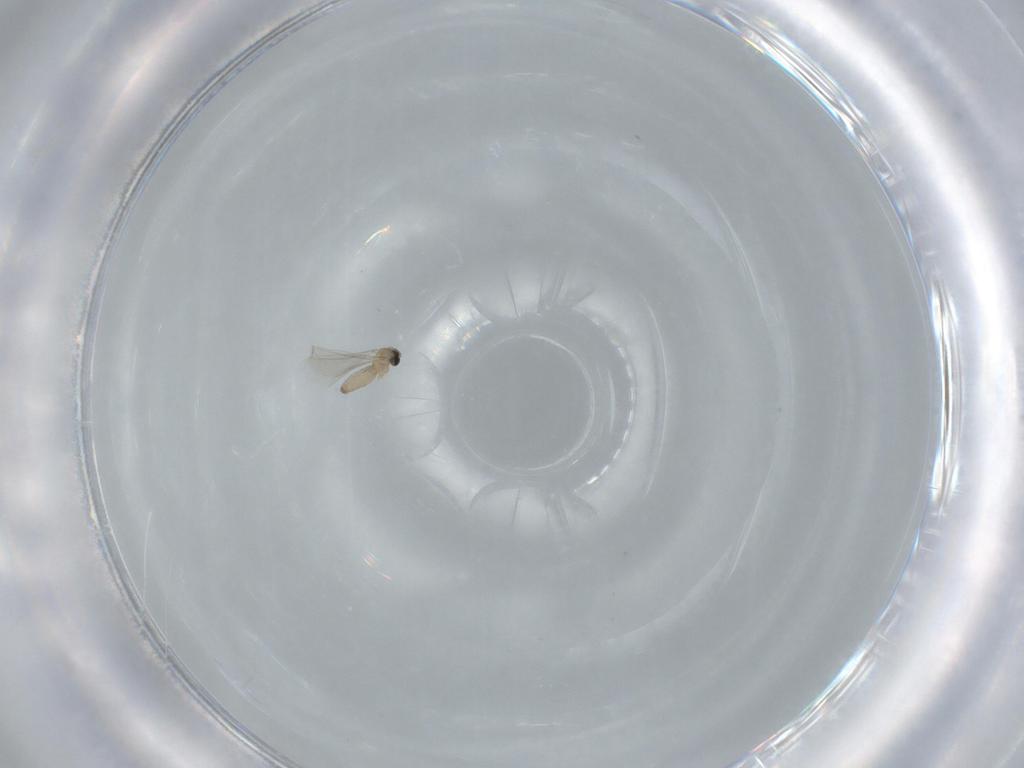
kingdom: Animalia
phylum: Arthropoda
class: Insecta
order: Diptera
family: Cecidomyiidae
